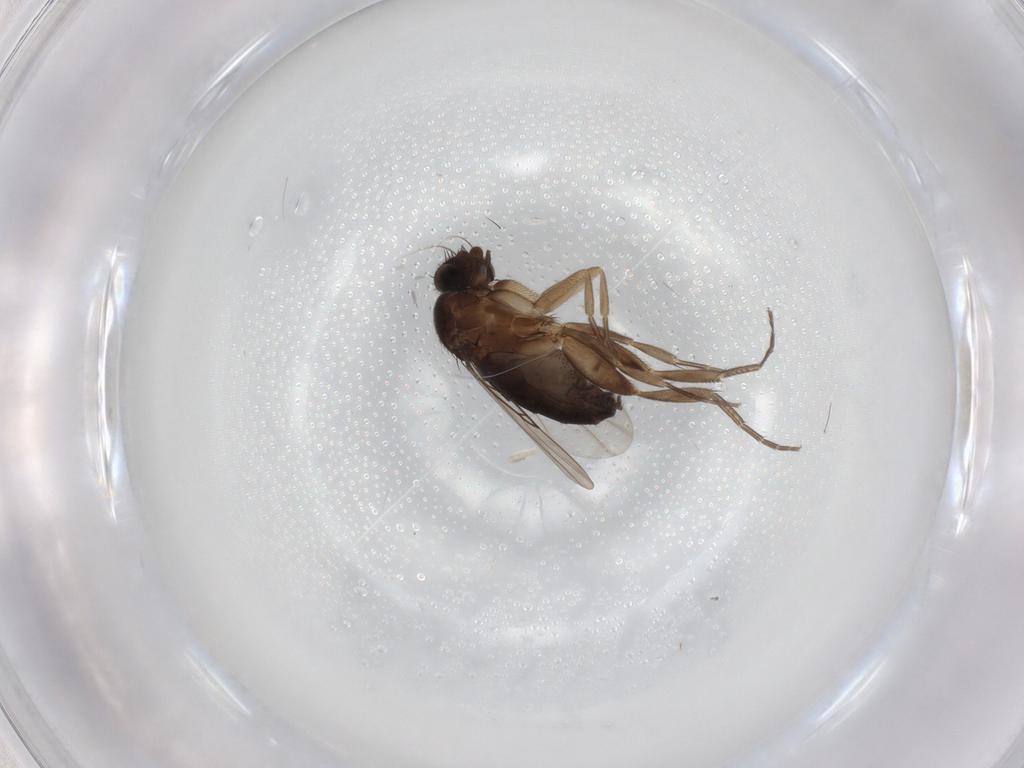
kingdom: Animalia
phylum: Arthropoda
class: Insecta
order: Diptera
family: Phoridae
